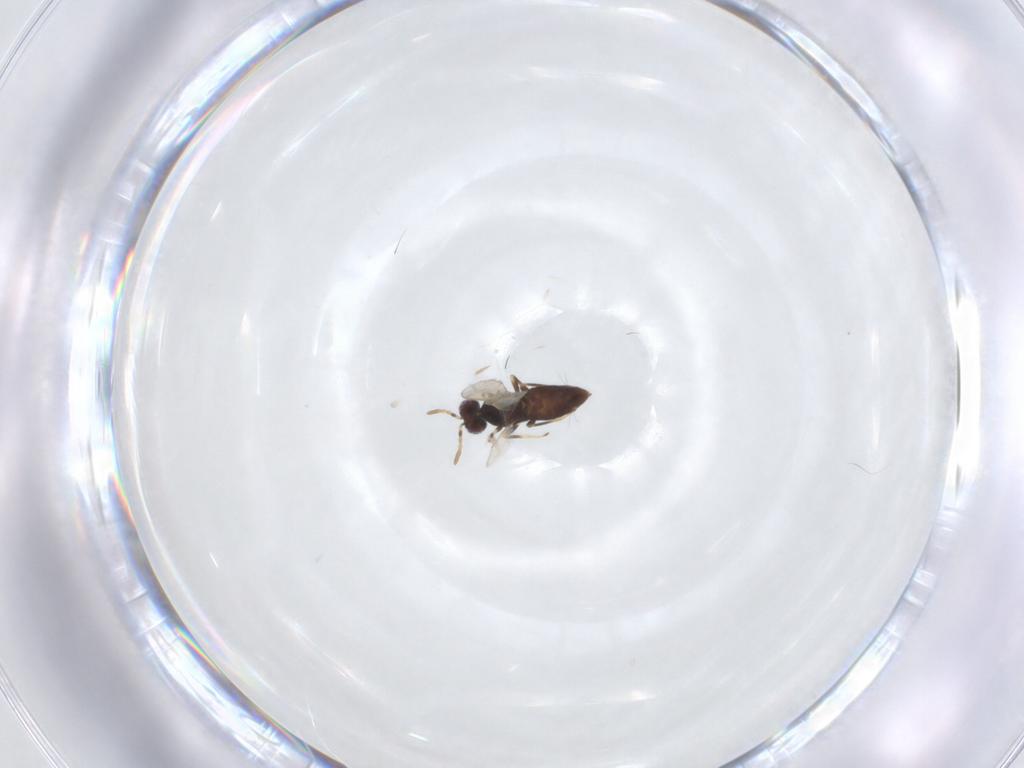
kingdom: Animalia
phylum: Arthropoda
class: Insecta
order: Hymenoptera
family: Aphelinidae
